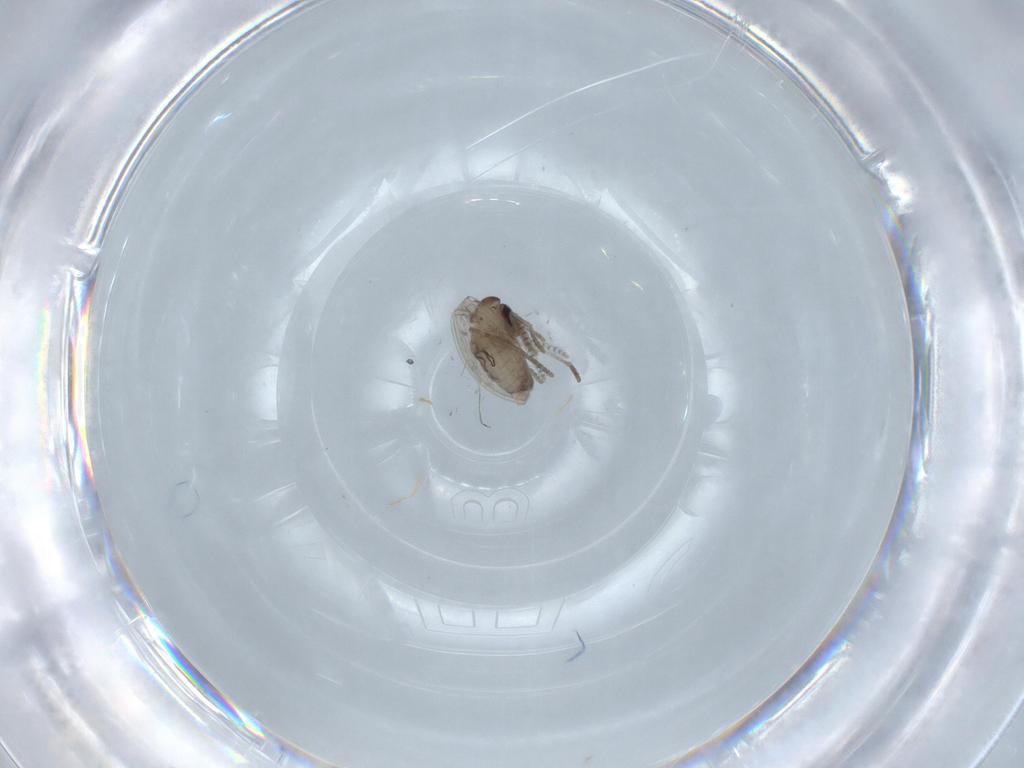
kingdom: Animalia
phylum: Arthropoda
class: Insecta
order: Diptera
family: Psychodidae
